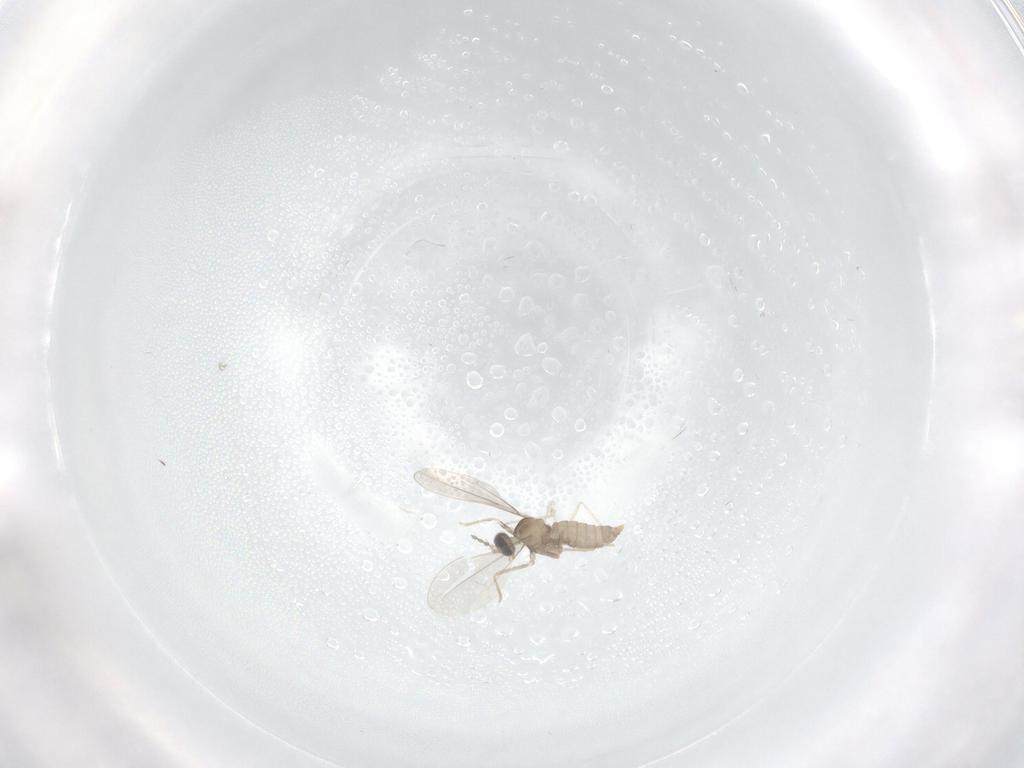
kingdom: Animalia
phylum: Arthropoda
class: Insecta
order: Diptera
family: Cecidomyiidae
